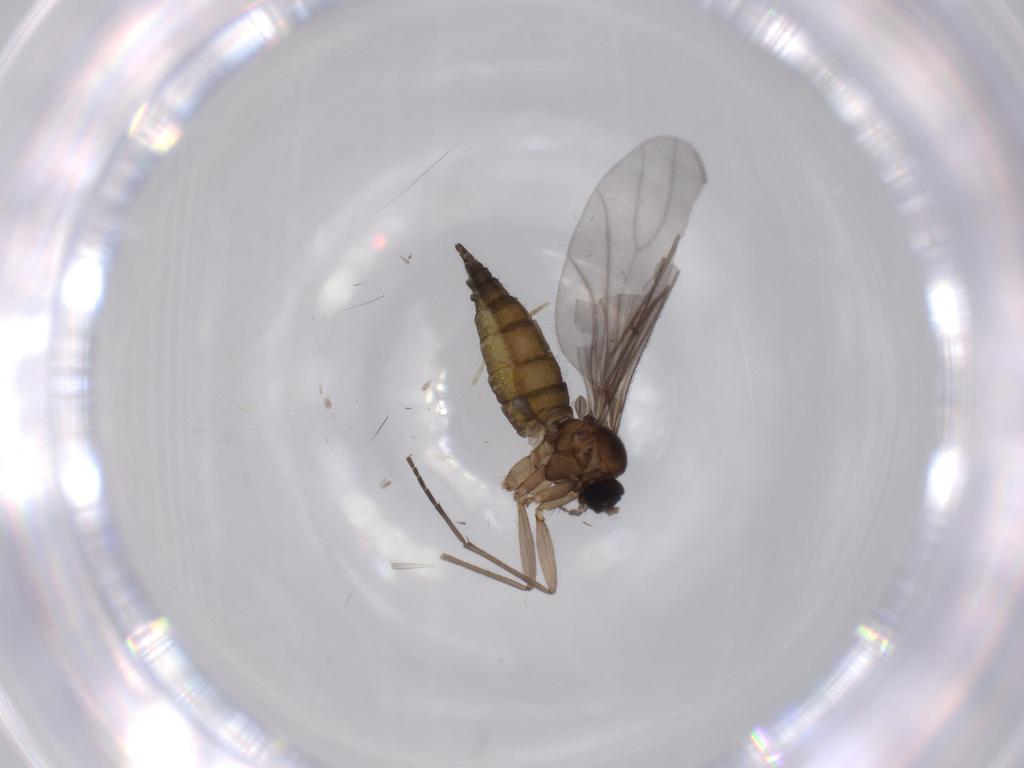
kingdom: Animalia
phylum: Arthropoda
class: Insecta
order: Diptera
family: Sciaridae
